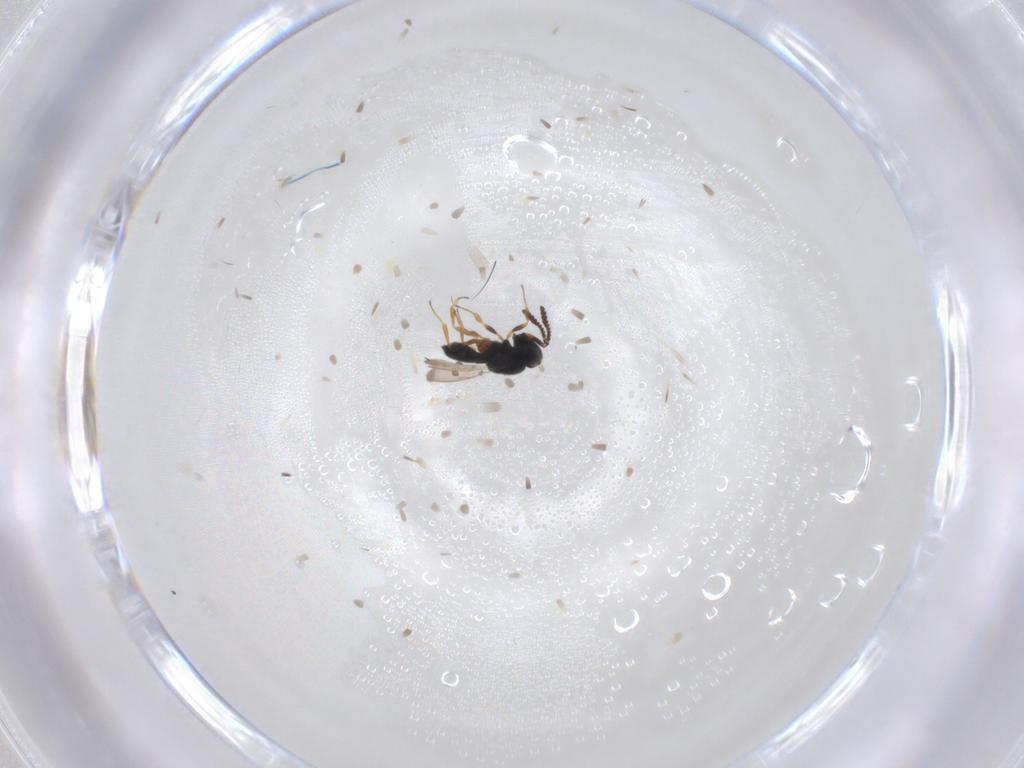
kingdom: Animalia
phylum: Arthropoda
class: Insecta
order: Hymenoptera
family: Scelionidae
